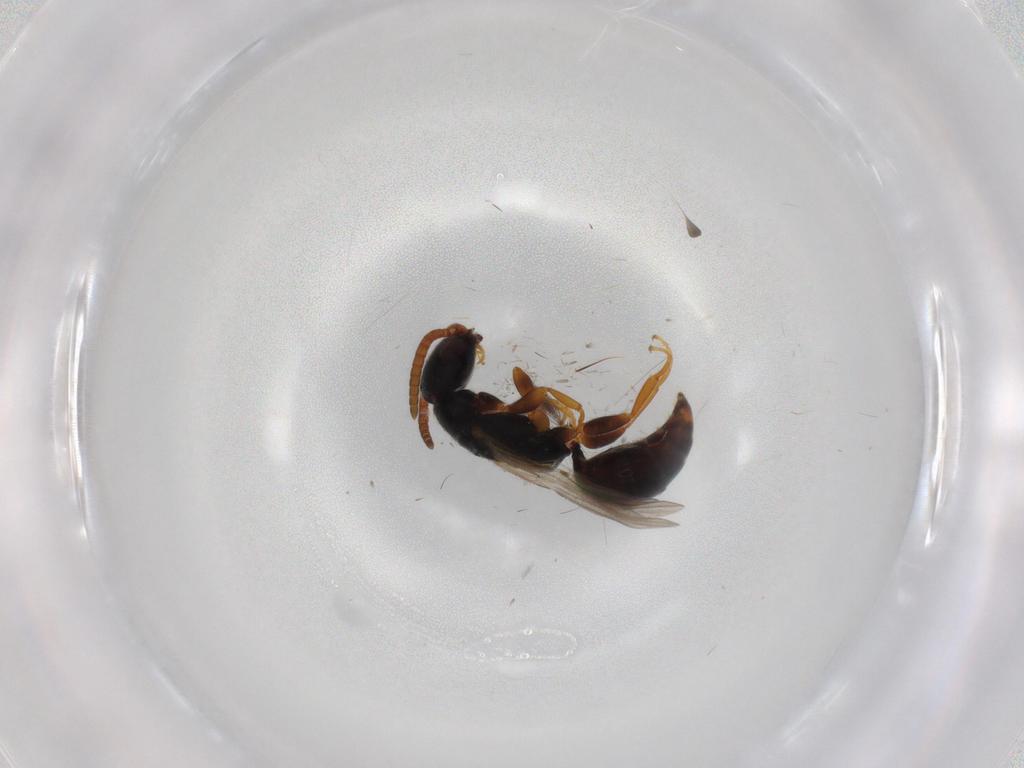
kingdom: Animalia
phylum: Arthropoda
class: Insecta
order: Hymenoptera
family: Bethylidae
